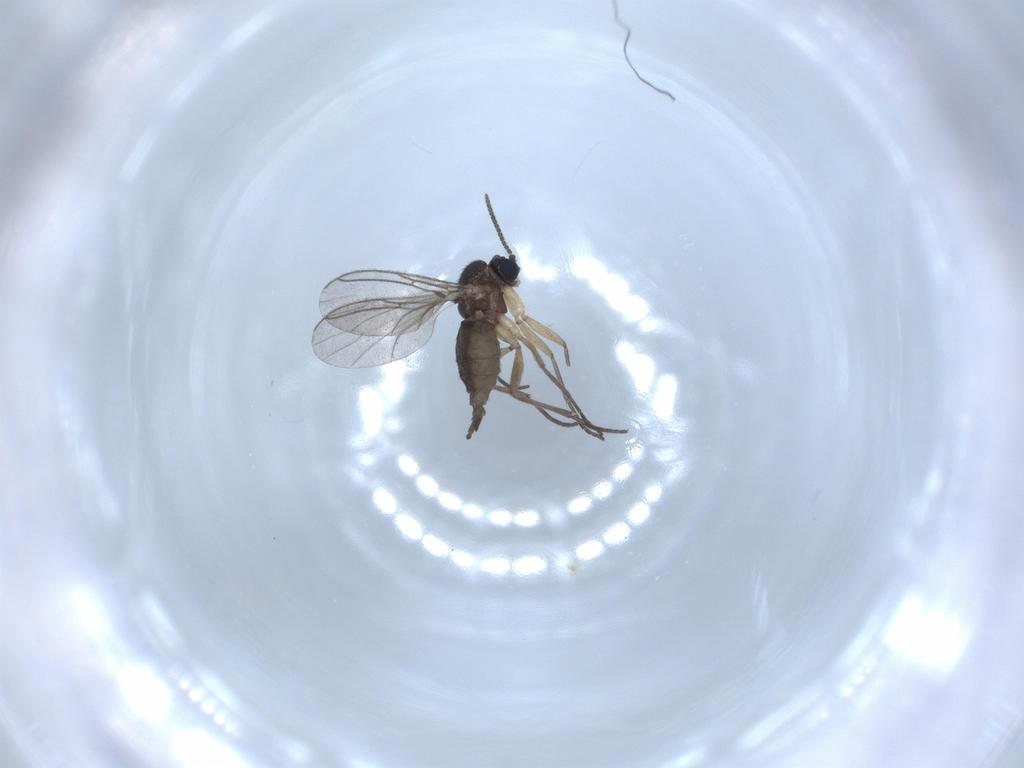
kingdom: Animalia
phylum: Arthropoda
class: Insecta
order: Diptera
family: Sciaridae
